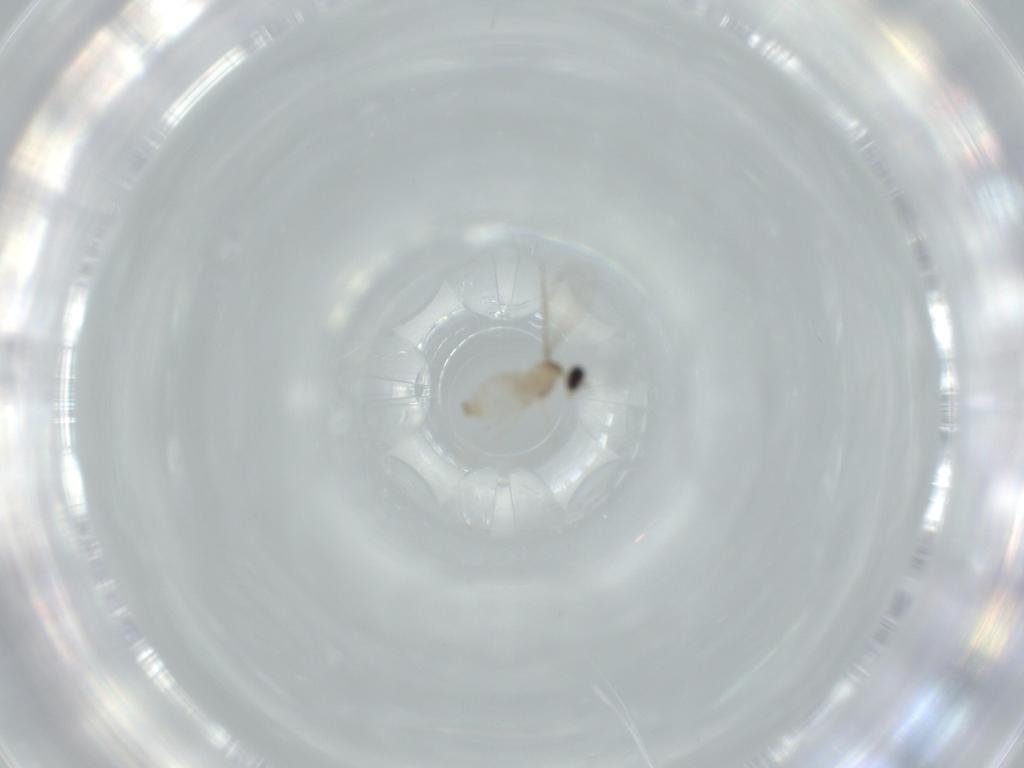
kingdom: Animalia
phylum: Arthropoda
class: Insecta
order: Diptera
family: Cecidomyiidae
